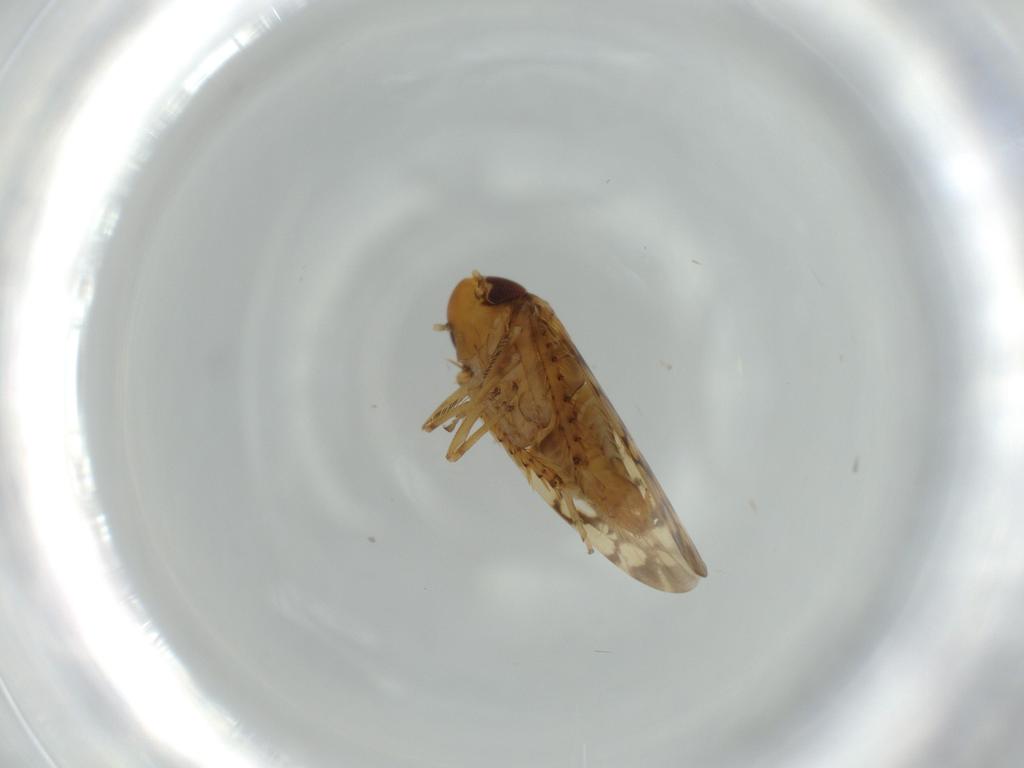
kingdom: Animalia
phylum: Arthropoda
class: Insecta
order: Hemiptera
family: Cicadellidae
